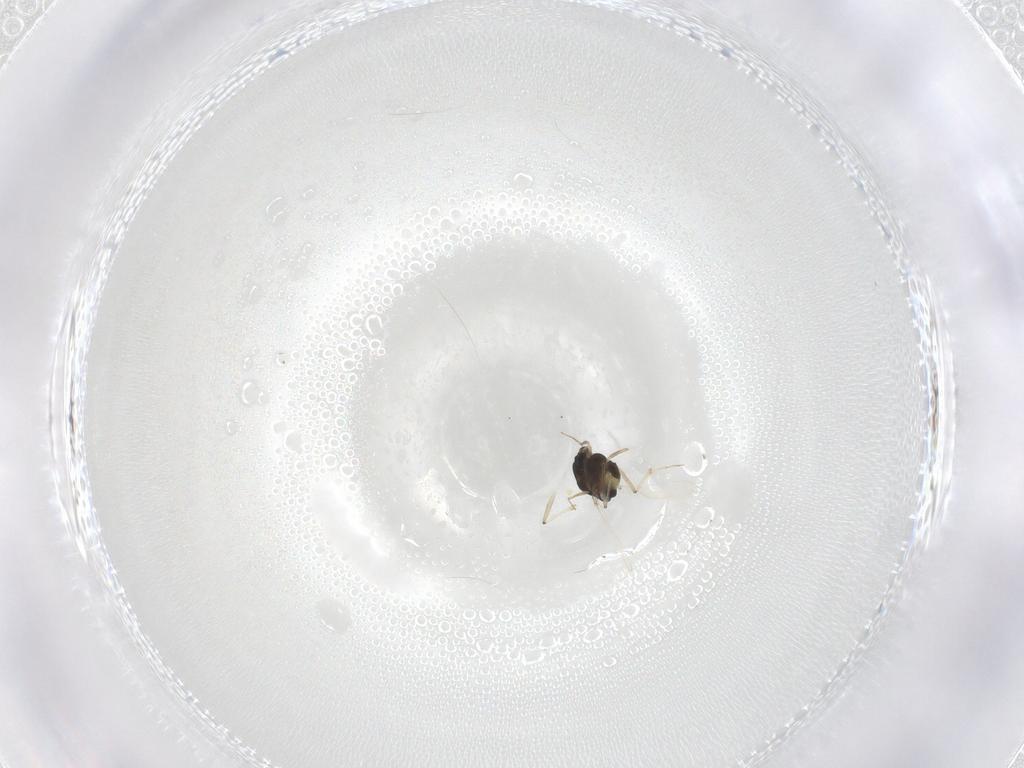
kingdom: Animalia
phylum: Arthropoda
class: Insecta
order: Diptera
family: Chironomidae
